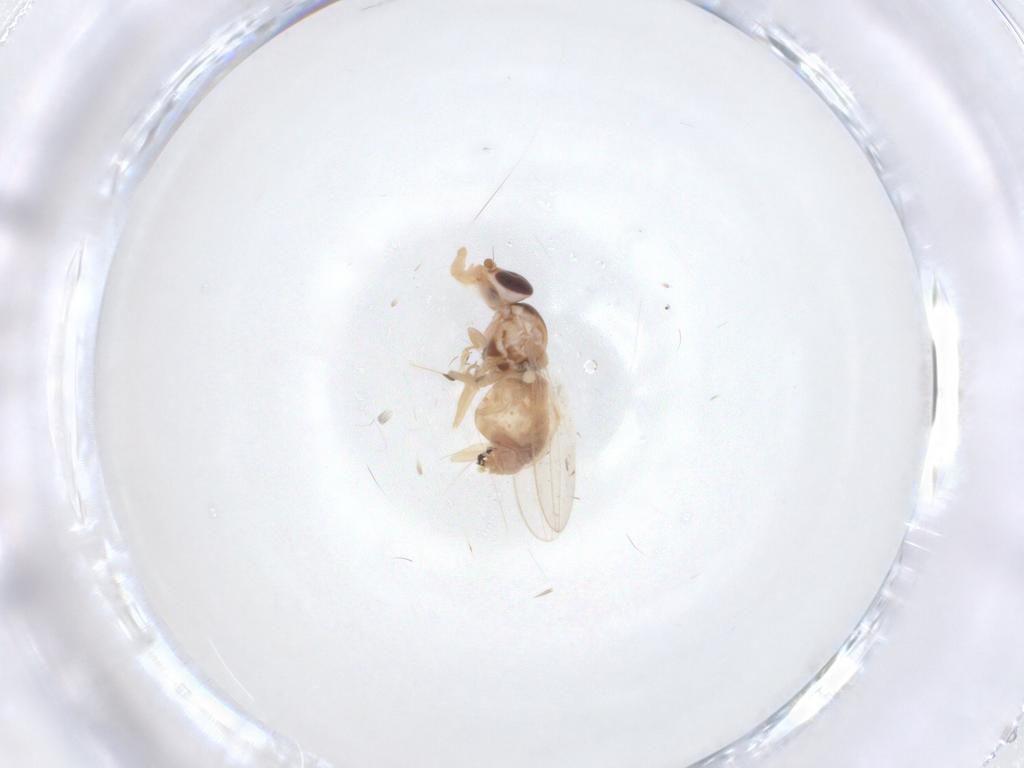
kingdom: Animalia
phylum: Arthropoda
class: Insecta
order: Diptera
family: Chloropidae
